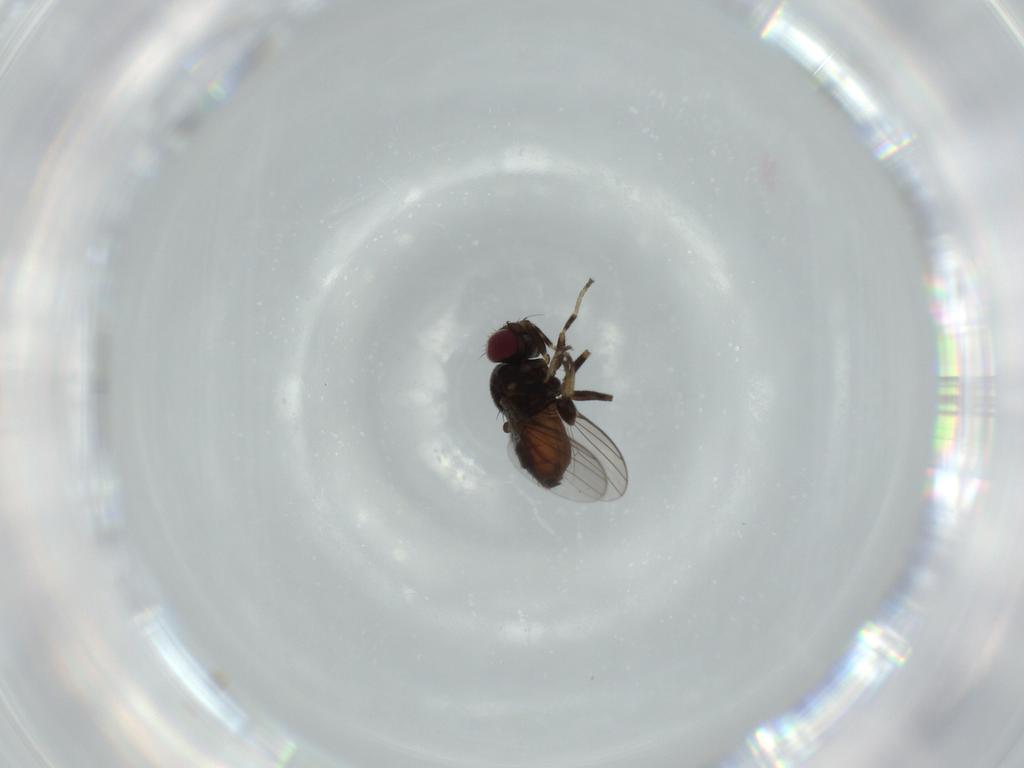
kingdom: Animalia
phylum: Arthropoda
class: Insecta
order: Diptera
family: Chloropidae
